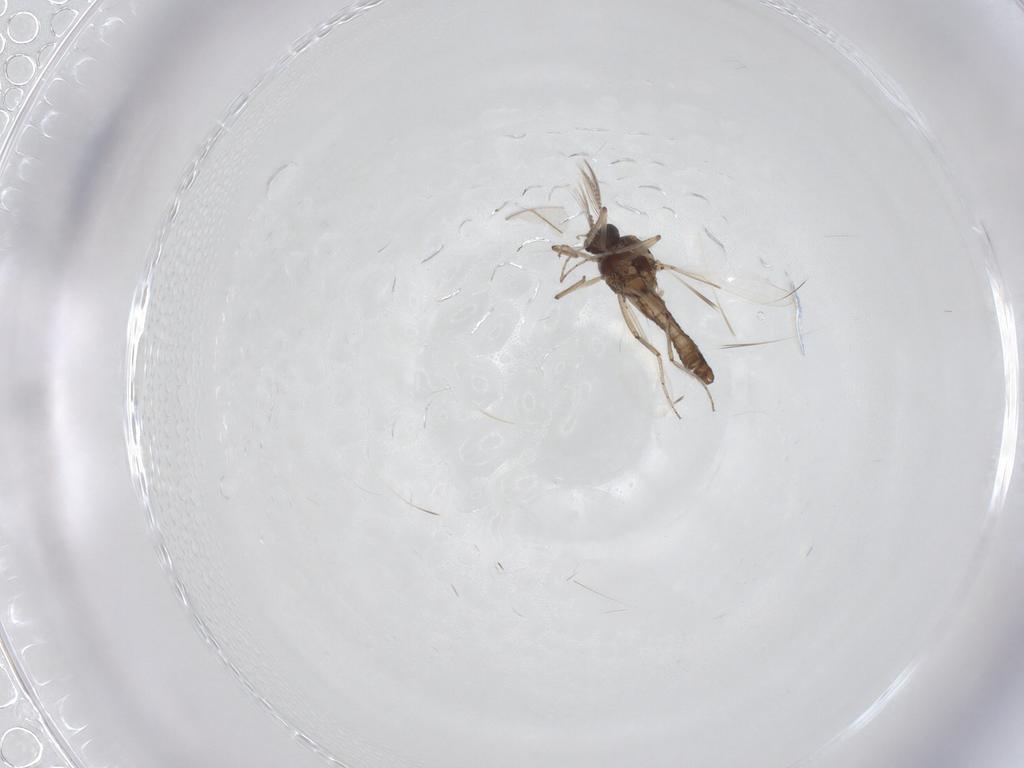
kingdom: Animalia
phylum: Arthropoda
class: Insecta
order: Diptera
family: Ceratopogonidae
